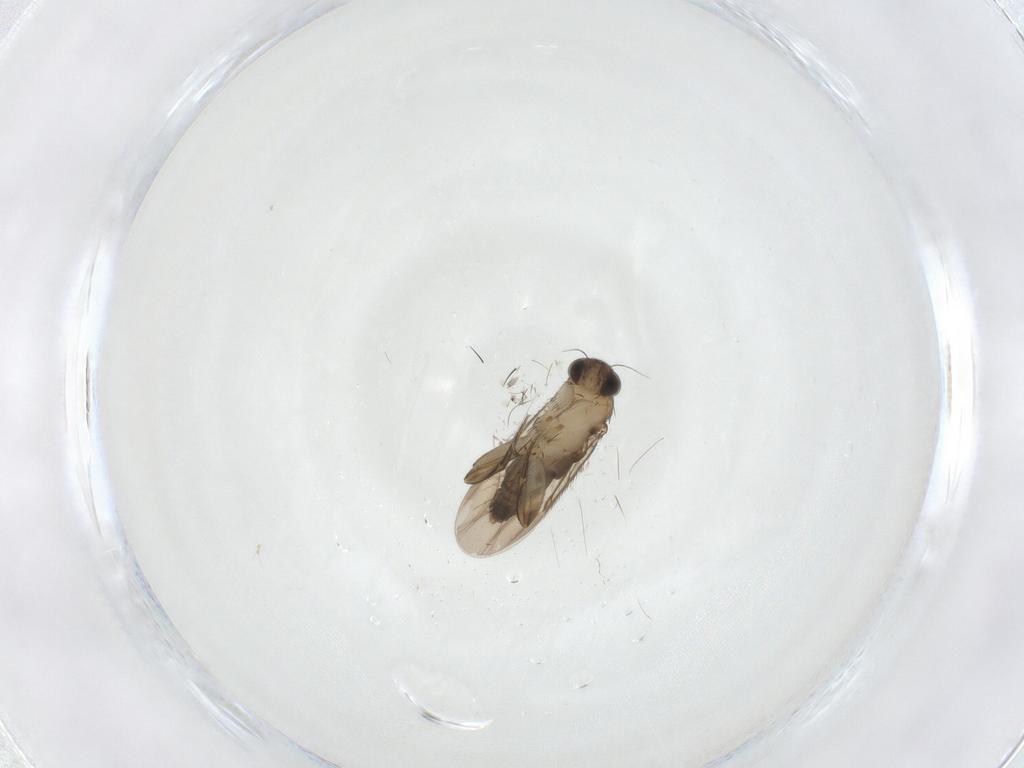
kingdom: Animalia
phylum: Arthropoda
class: Insecta
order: Diptera
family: Phoridae
